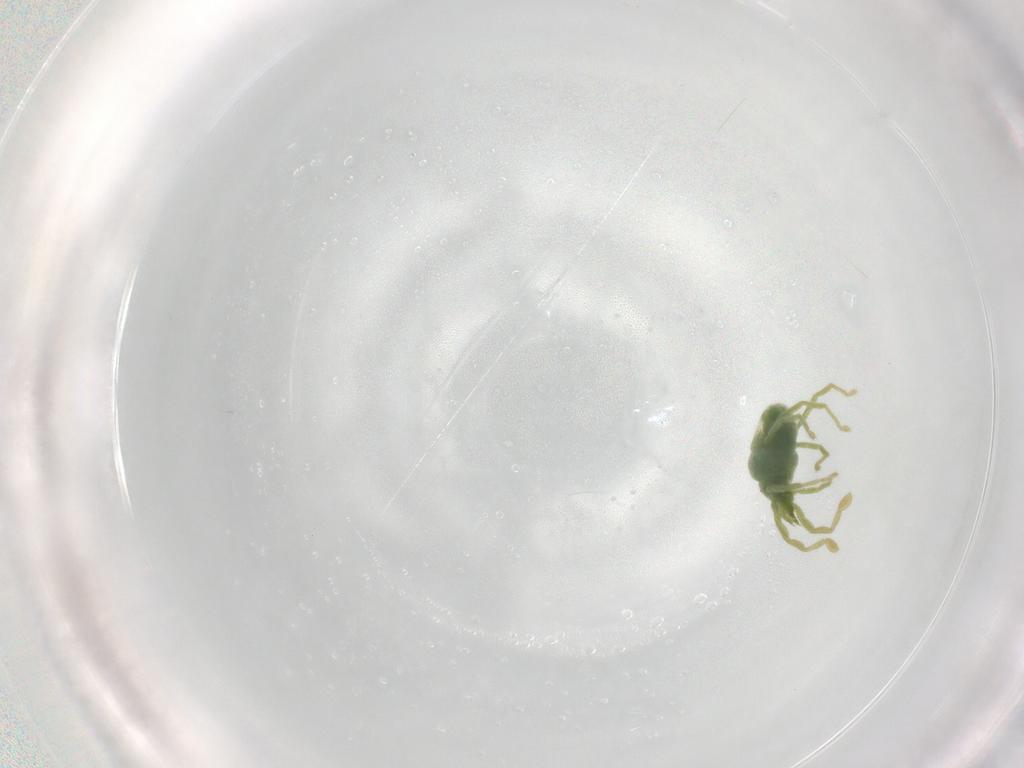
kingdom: Animalia
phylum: Arthropoda
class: Arachnida
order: Trombidiformes
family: Erythraeidae
